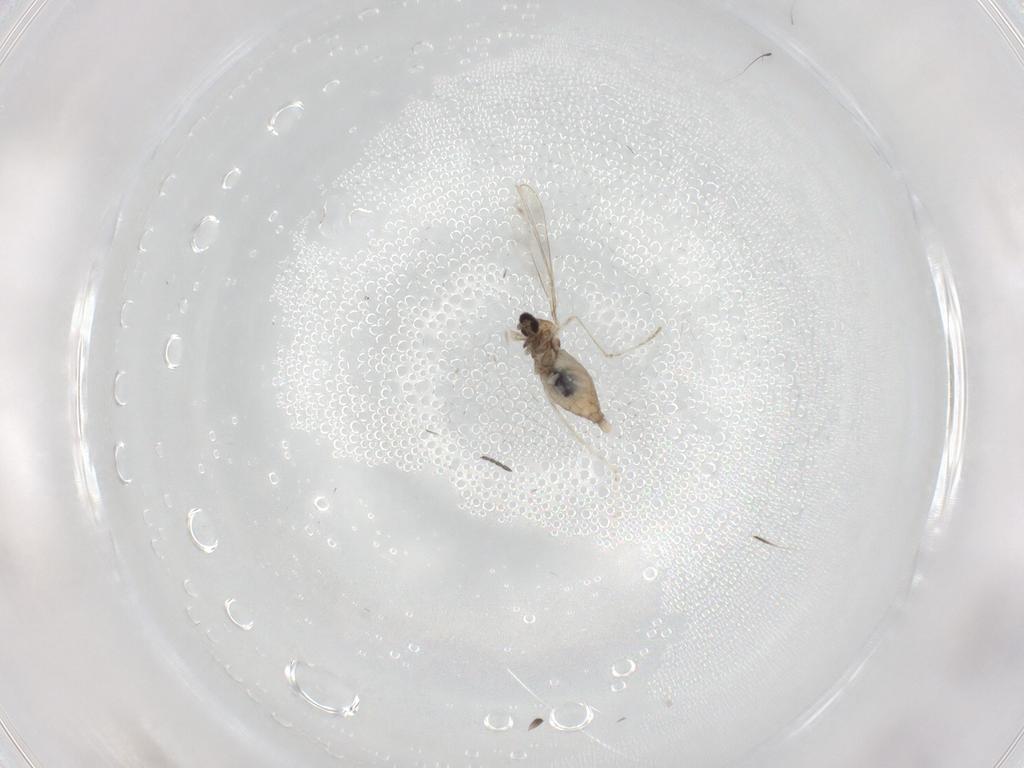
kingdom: Animalia
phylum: Arthropoda
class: Insecta
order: Diptera
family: Cecidomyiidae
